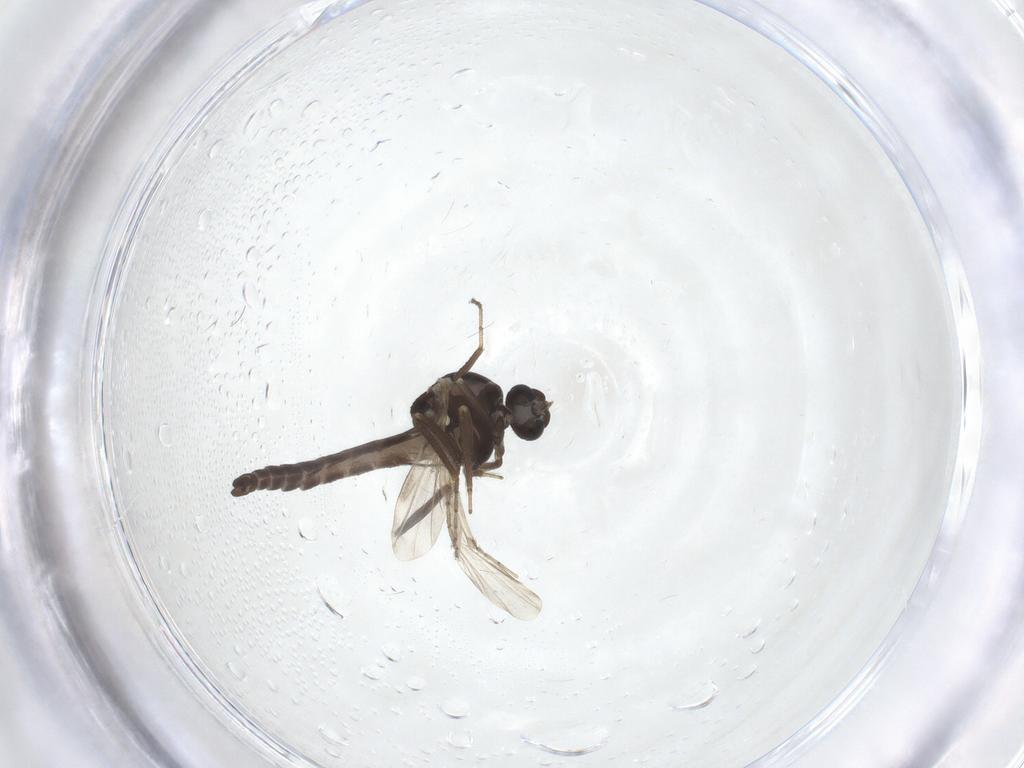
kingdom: Animalia
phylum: Arthropoda
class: Insecta
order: Diptera
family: Ceratopogonidae
